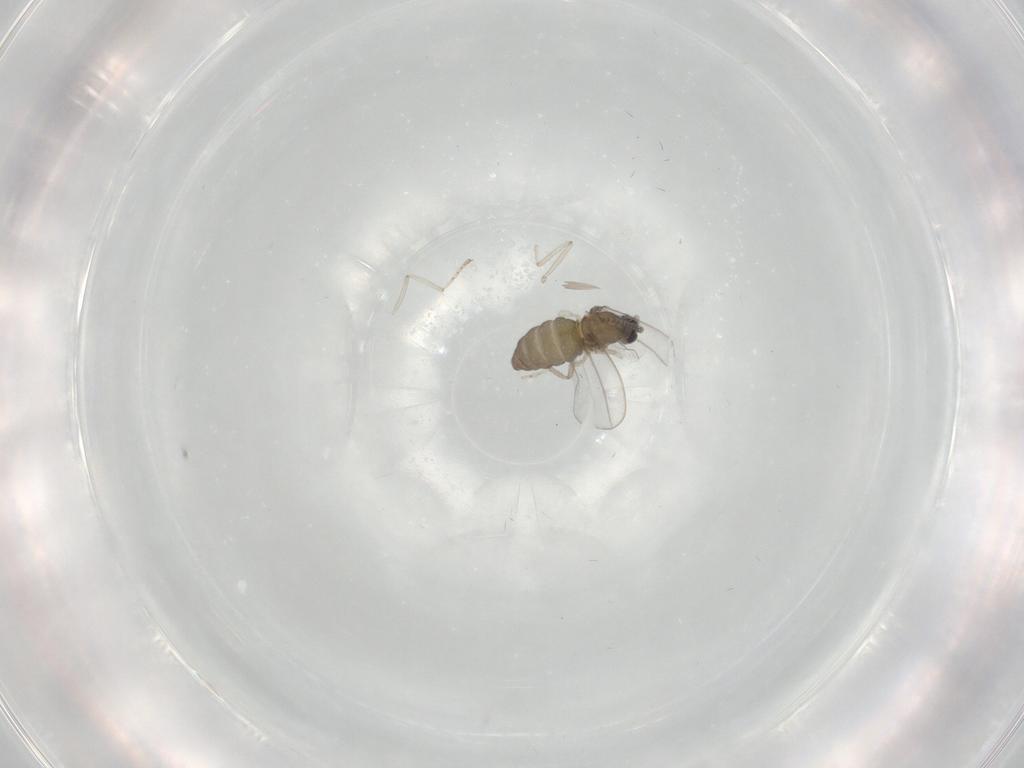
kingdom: Animalia
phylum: Arthropoda
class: Insecta
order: Diptera
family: Cecidomyiidae
